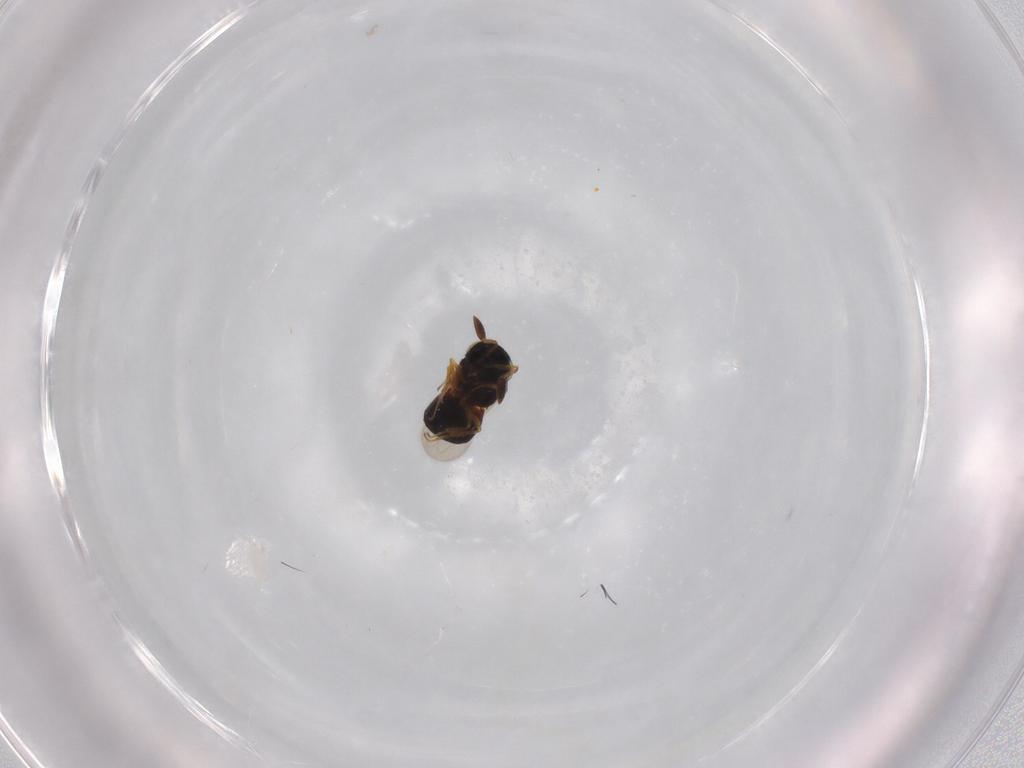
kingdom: Animalia
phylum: Arthropoda
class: Insecta
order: Hymenoptera
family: Scelionidae
